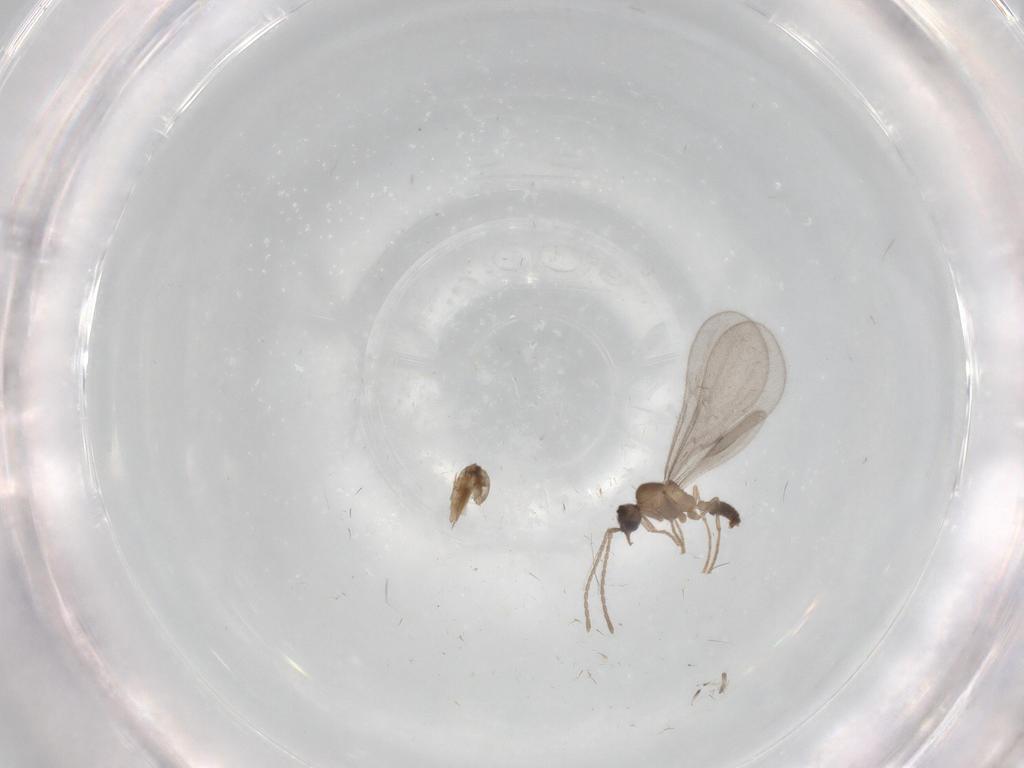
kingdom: Animalia
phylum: Arthropoda
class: Insecta
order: Hymenoptera
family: Formicidae
